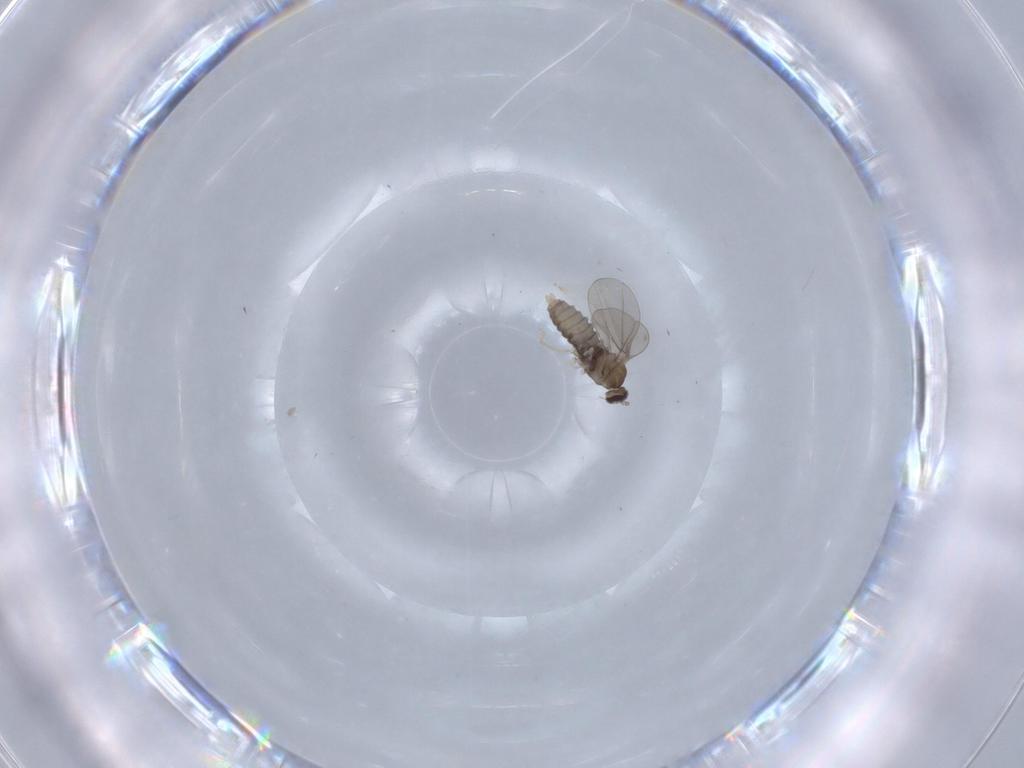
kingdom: Animalia
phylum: Arthropoda
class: Insecta
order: Diptera
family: Cecidomyiidae
